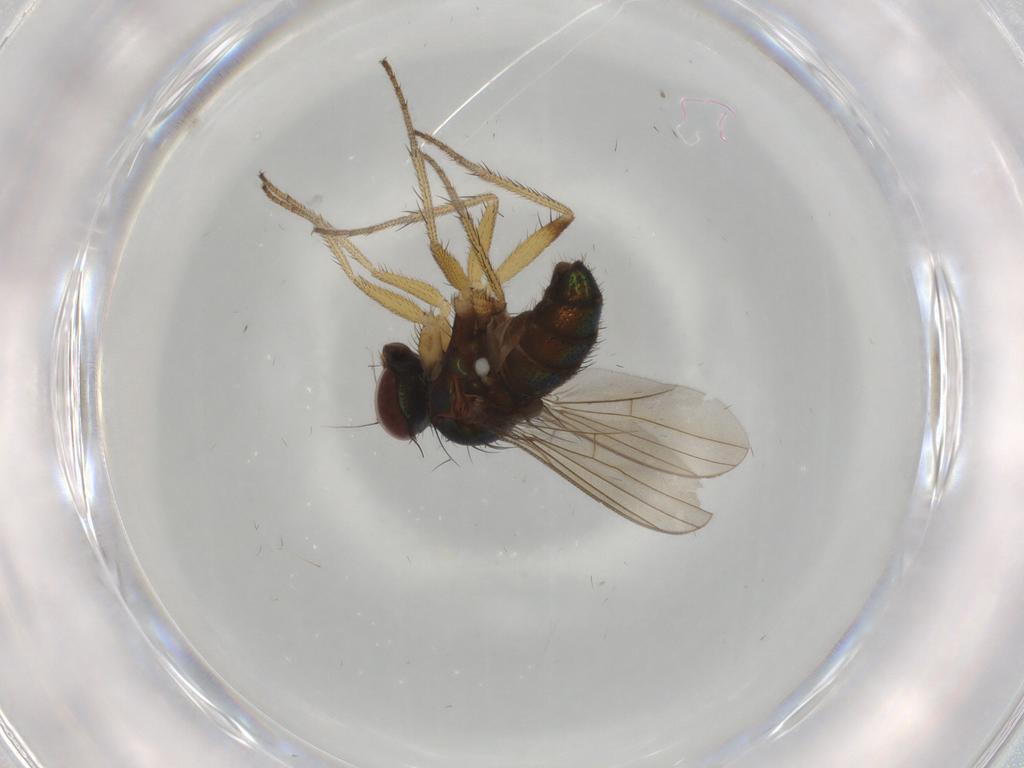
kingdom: Animalia
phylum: Arthropoda
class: Insecta
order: Diptera
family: Dolichopodidae
